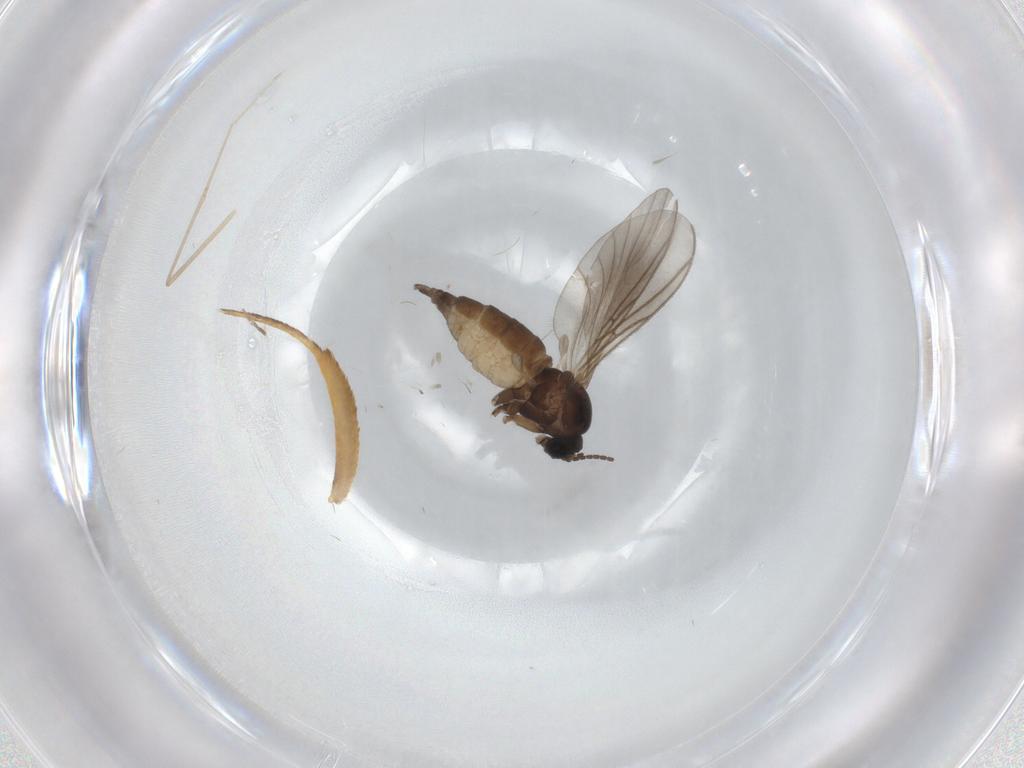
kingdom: Animalia
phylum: Arthropoda
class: Insecta
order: Diptera
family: Sciaridae
